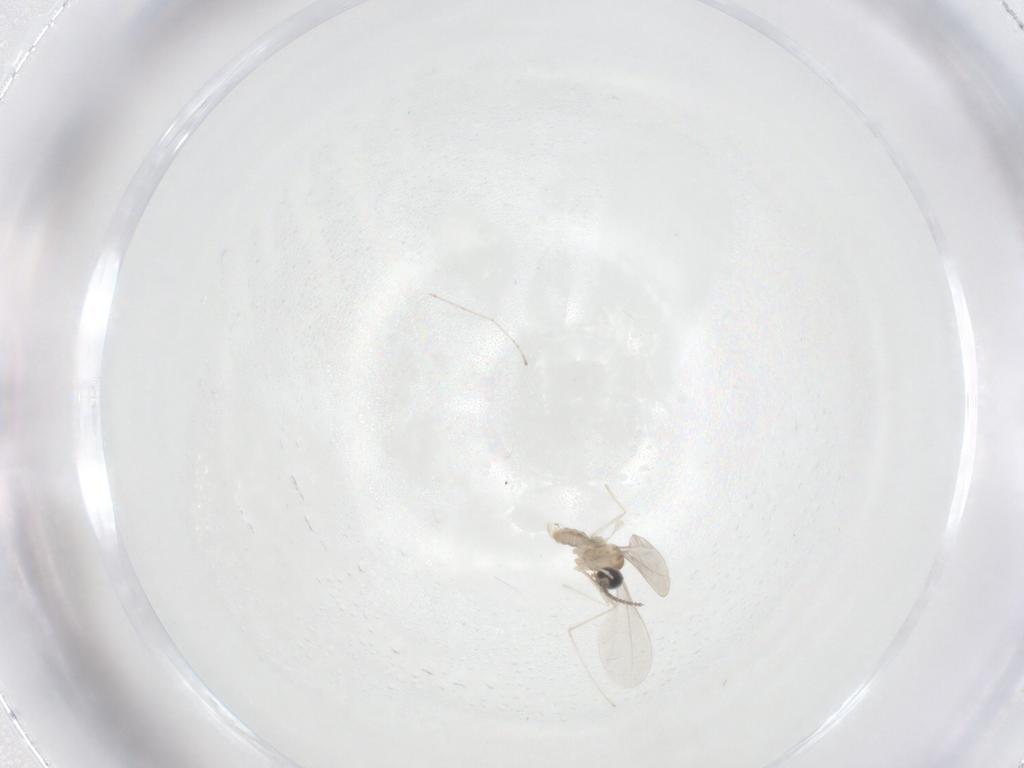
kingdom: Animalia
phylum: Arthropoda
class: Insecta
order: Diptera
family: Cecidomyiidae
